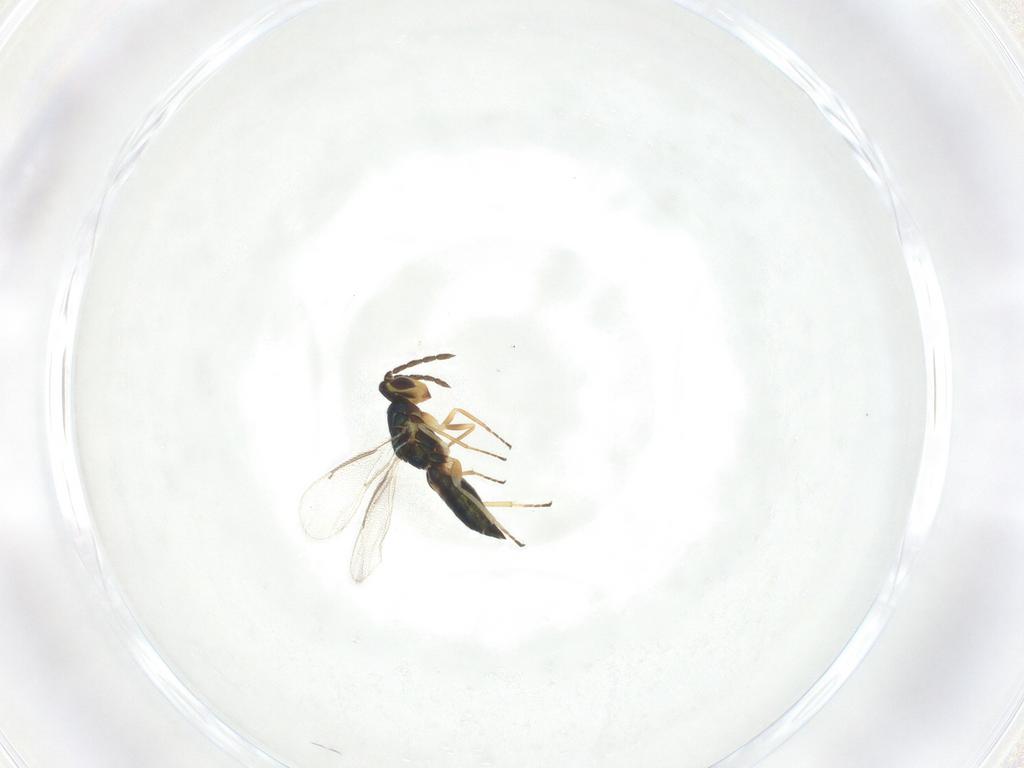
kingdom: Animalia
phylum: Arthropoda
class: Insecta
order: Hymenoptera
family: Eulophidae
